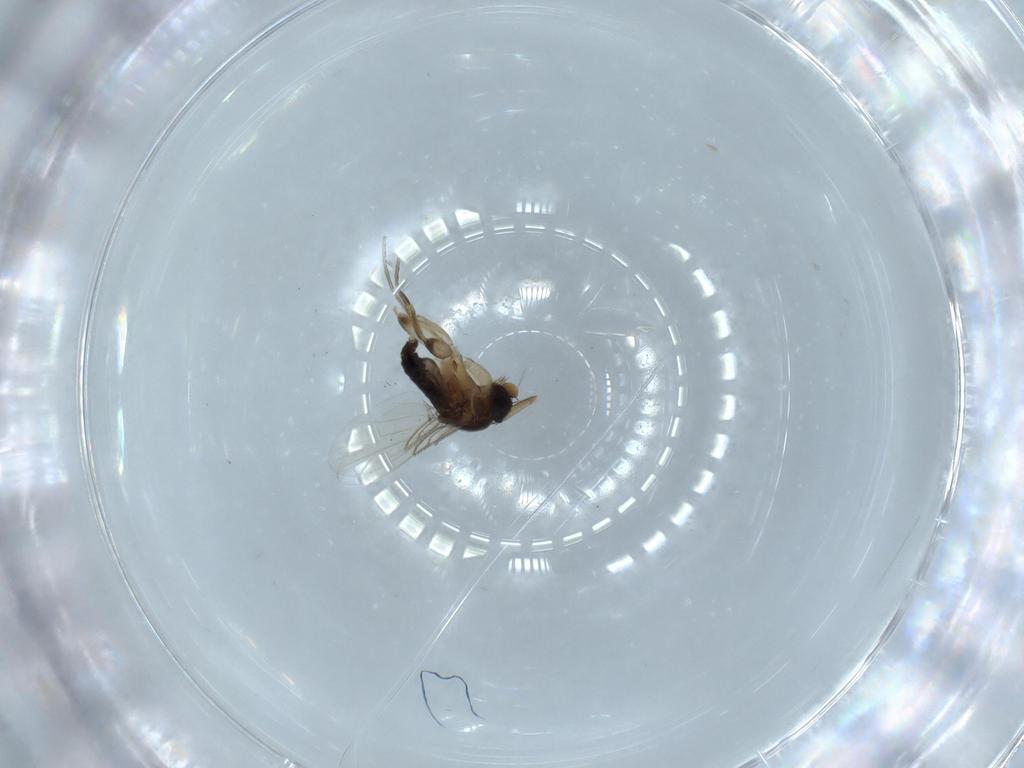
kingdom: Animalia
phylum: Arthropoda
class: Insecta
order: Diptera
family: Phoridae
